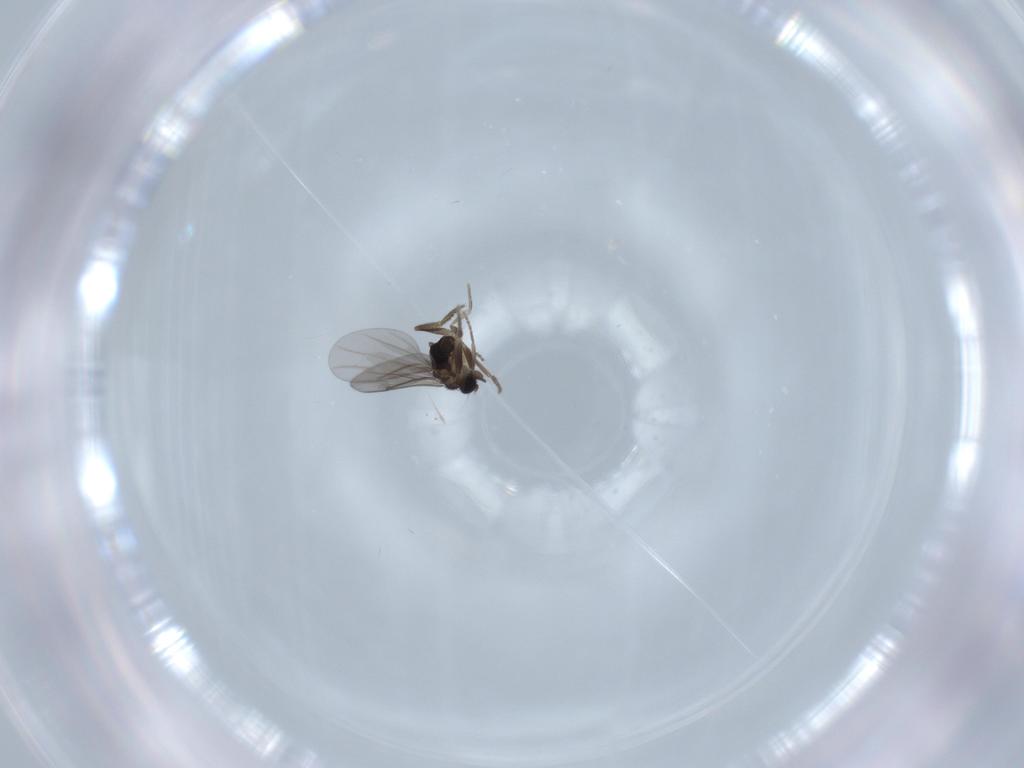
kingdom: Animalia
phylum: Arthropoda
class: Insecta
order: Diptera
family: Chironomidae
